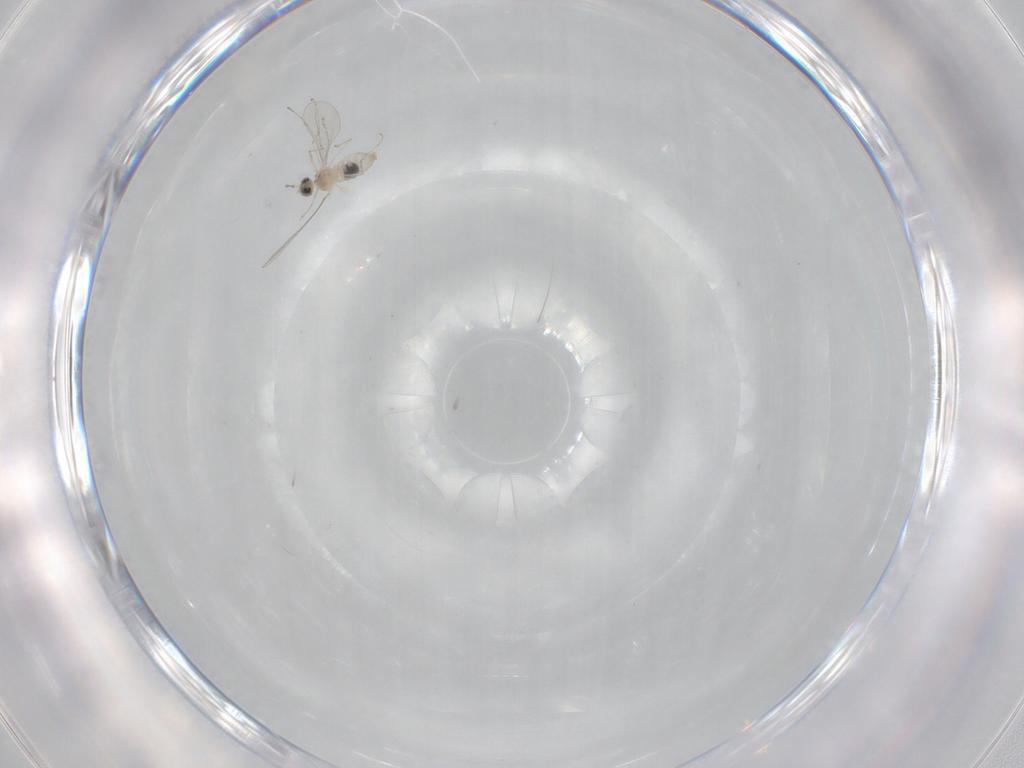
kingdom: Animalia
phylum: Arthropoda
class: Insecta
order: Diptera
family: Cecidomyiidae
